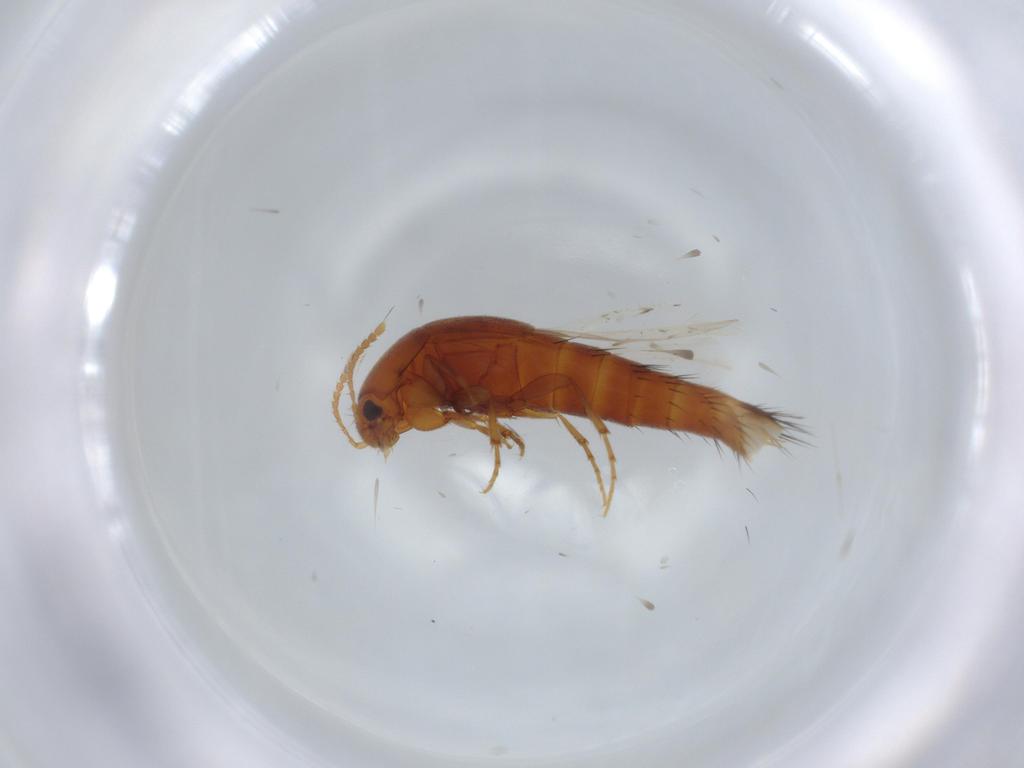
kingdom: Animalia
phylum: Arthropoda
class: Insecta
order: Coleoptera
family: Staphylinidae
